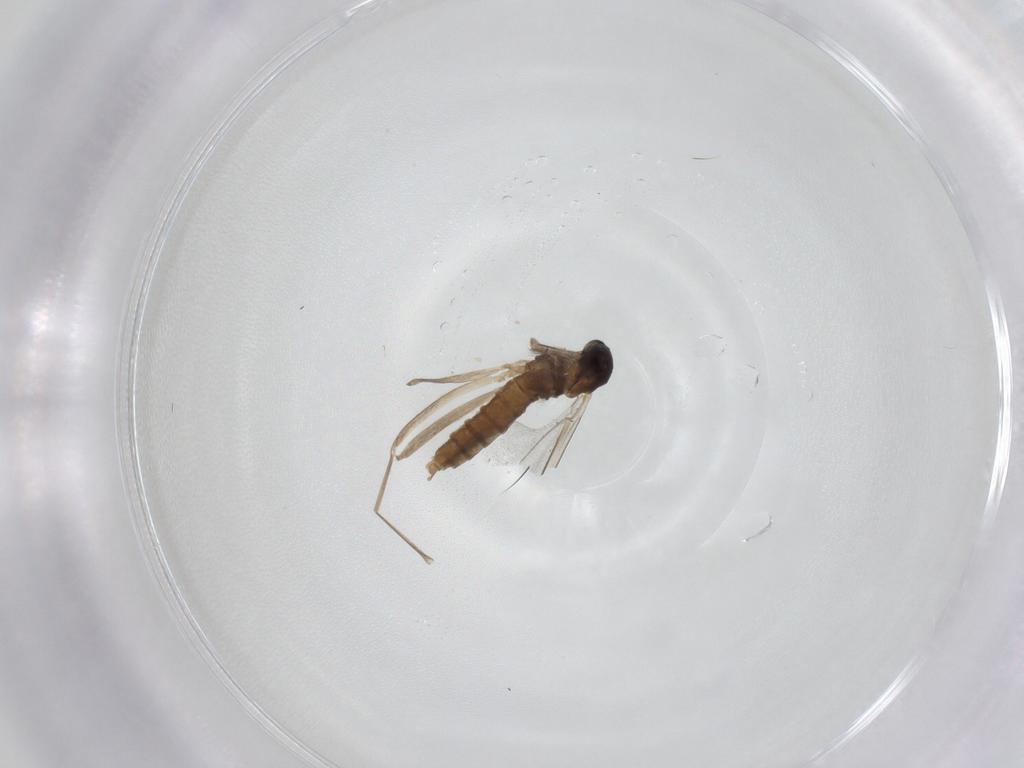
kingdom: Animalia
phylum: Arthropoda
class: Insecta
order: Diptera
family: Cecidomyiidae
